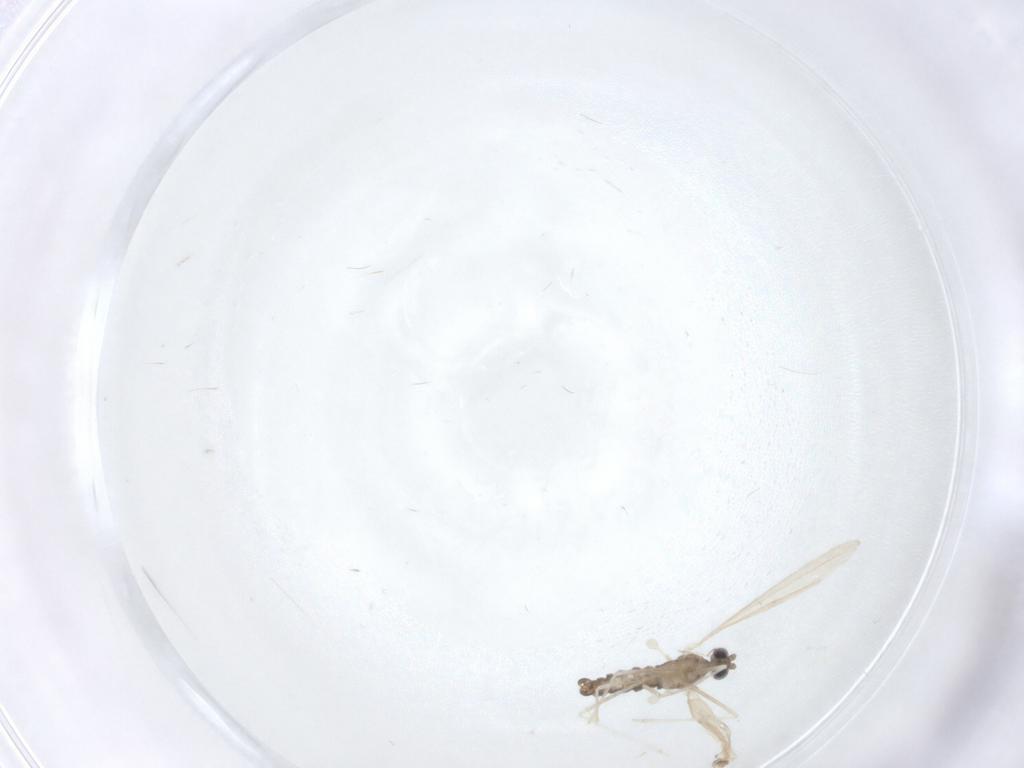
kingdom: Animalia
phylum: Arthropoda
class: Insecta
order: Diptera
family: Cecidomyiidae
